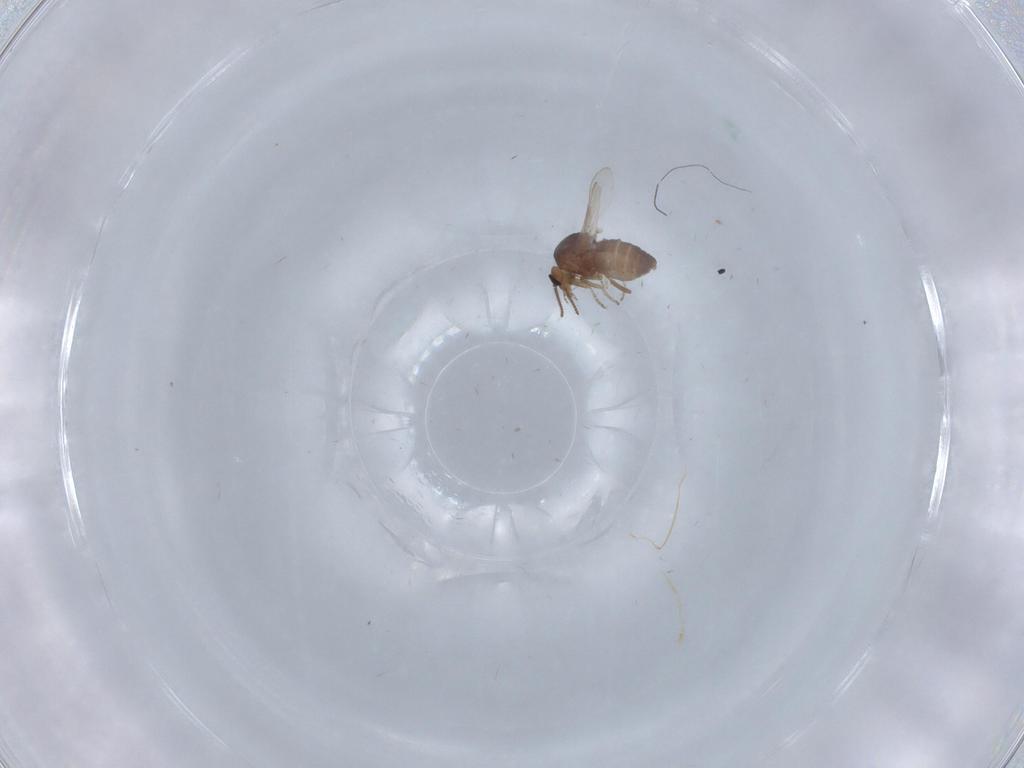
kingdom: Animalia
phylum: Arthropoda
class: Insecta
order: Diptera
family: Ceratopogonidae
